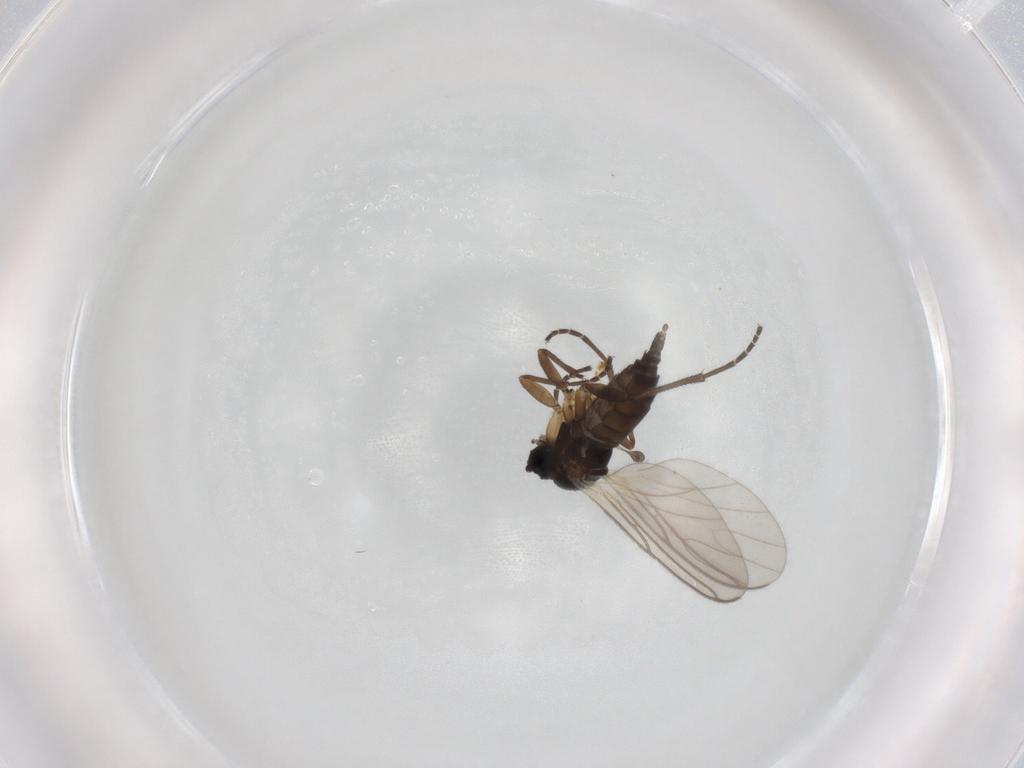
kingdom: Animalia
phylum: Arthropoda
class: Insecta
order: Diptera
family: Sciaridae
